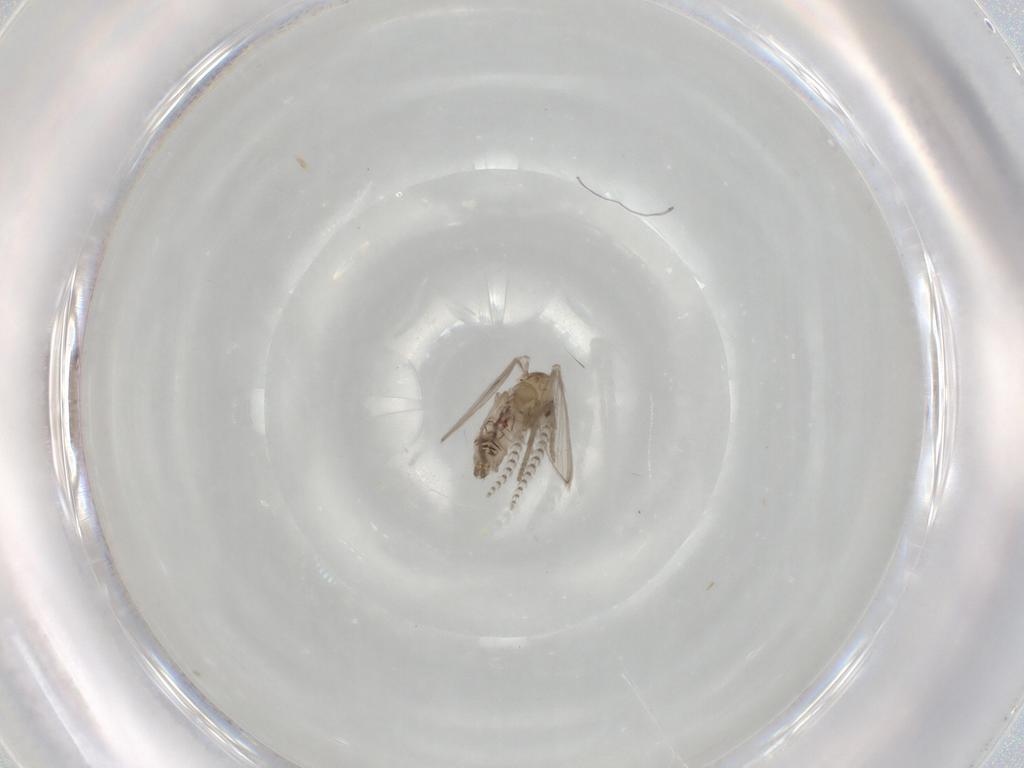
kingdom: Animalia
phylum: Arthropoda
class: Insecta
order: Diptera
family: Psychodidae
